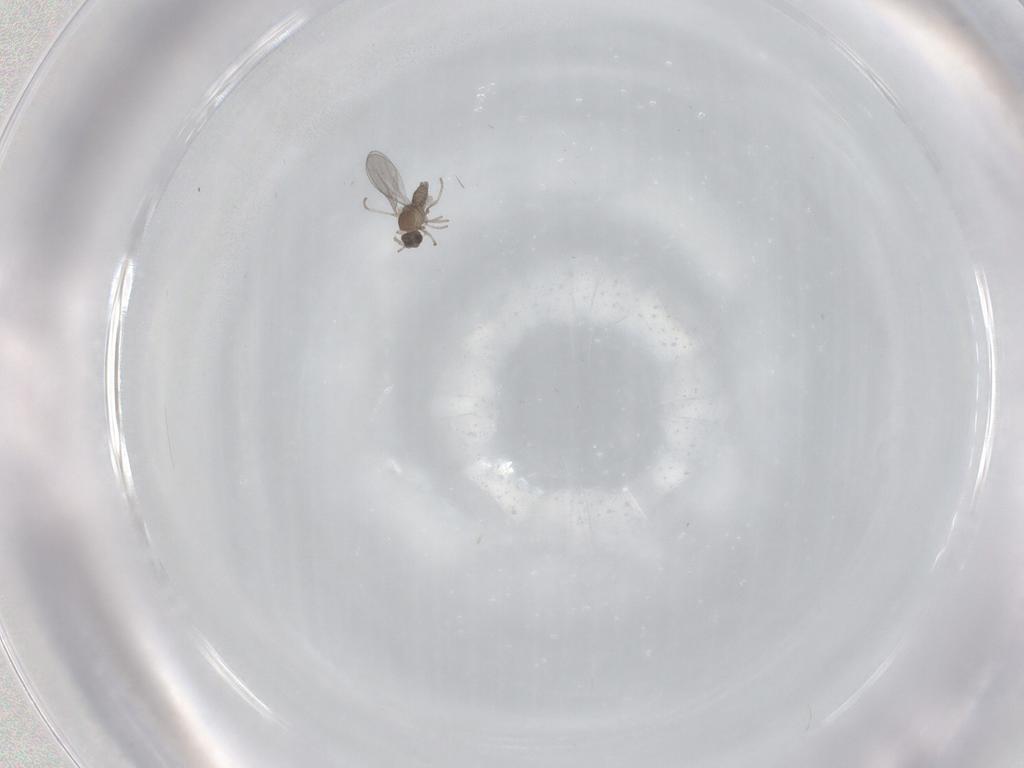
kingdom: Animalia
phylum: Arthropoda
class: Insecta
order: Diptera
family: Cecidomyiidae
